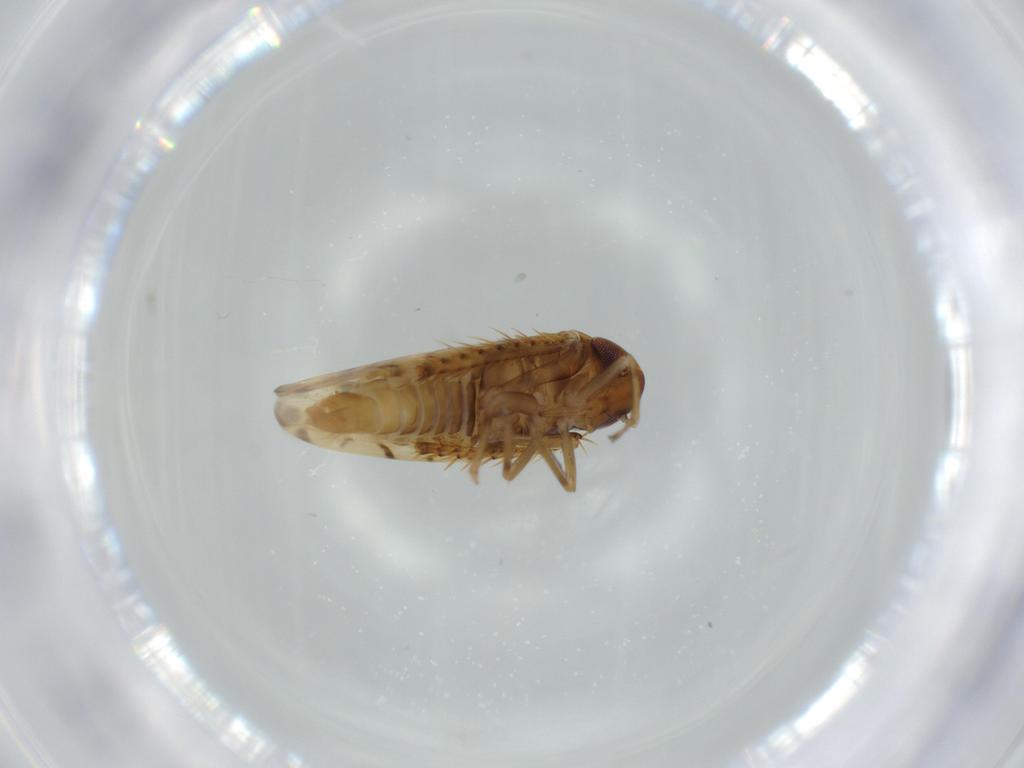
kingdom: Animalia
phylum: Arthropoda
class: Insecta
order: Hemiptera
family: Cicadellidae
